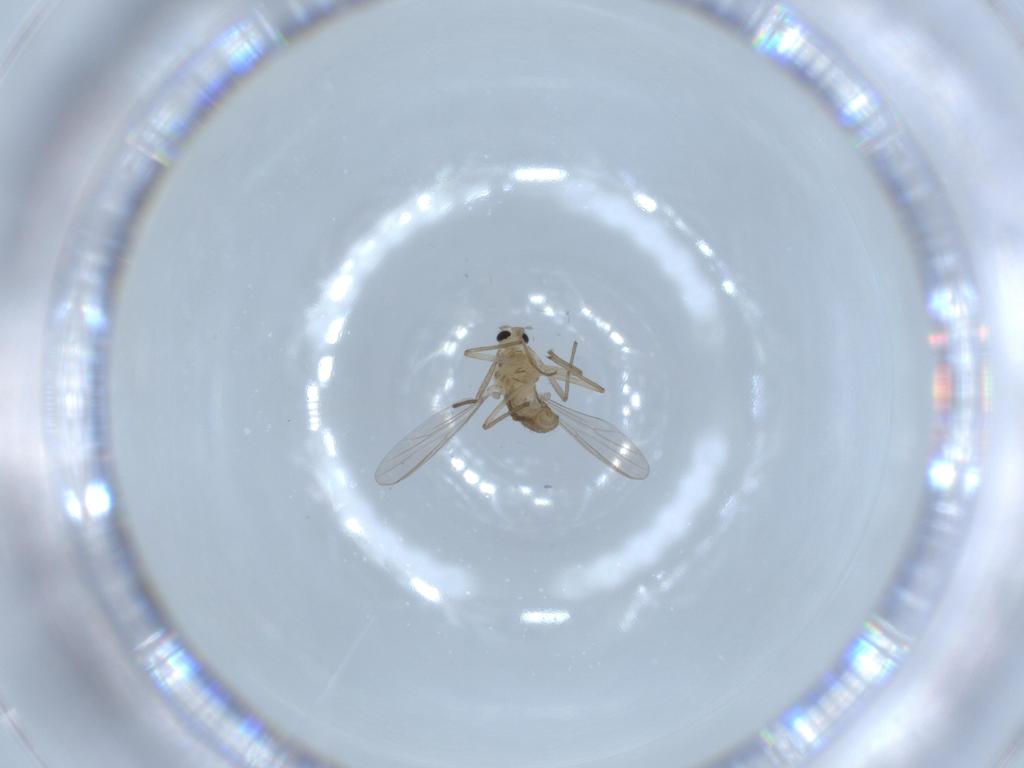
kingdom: Animalia
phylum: Arthropoda
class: Insecta
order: Diptera
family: Chironomidae
